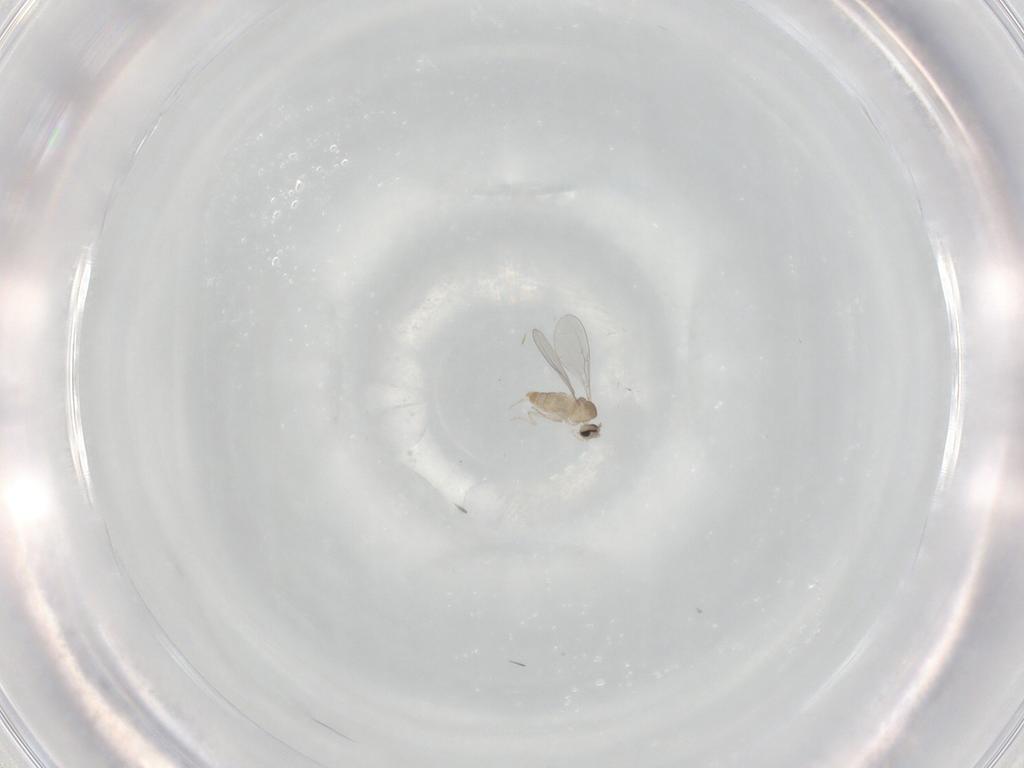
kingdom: Animalia
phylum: Arthropoda
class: Insecta
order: Diptera
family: Cecidomyiidae
